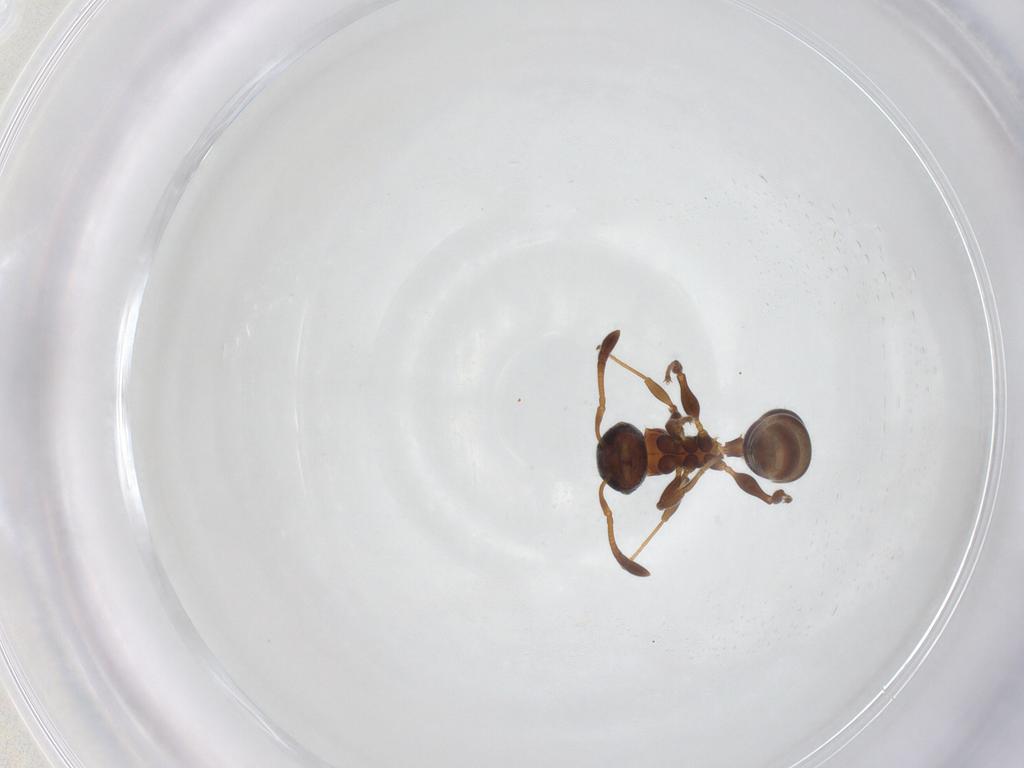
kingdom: Animalia
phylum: Arthropoda
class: Insecta
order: Hymenoptera
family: Formicidae
